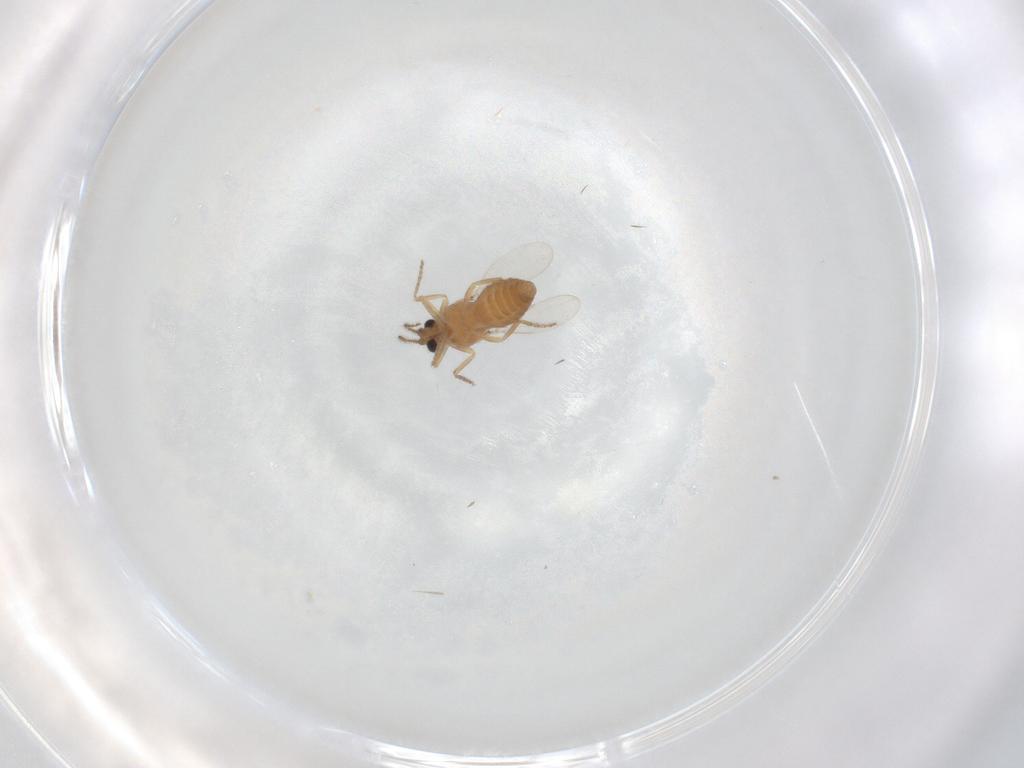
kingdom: Animalia
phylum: Arthropoda
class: Insecta
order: Diptera
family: Ceratopogonidae
